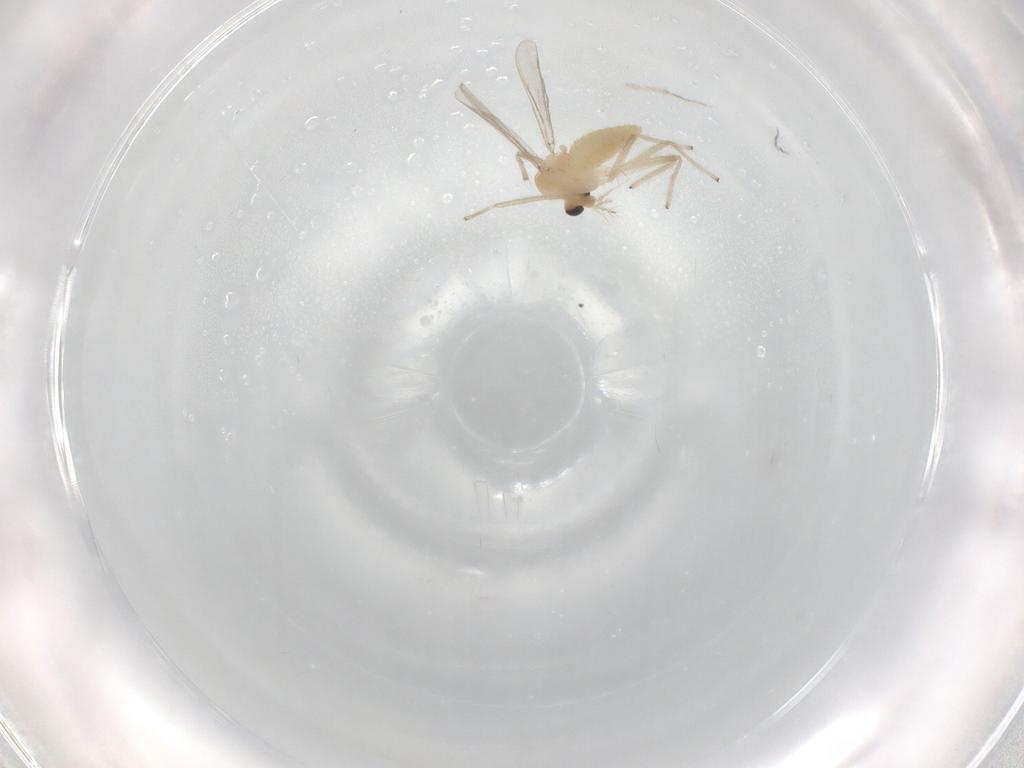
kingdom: Animalia
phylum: Arthropoda
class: Insecta
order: Diptera
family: Chironomidae
